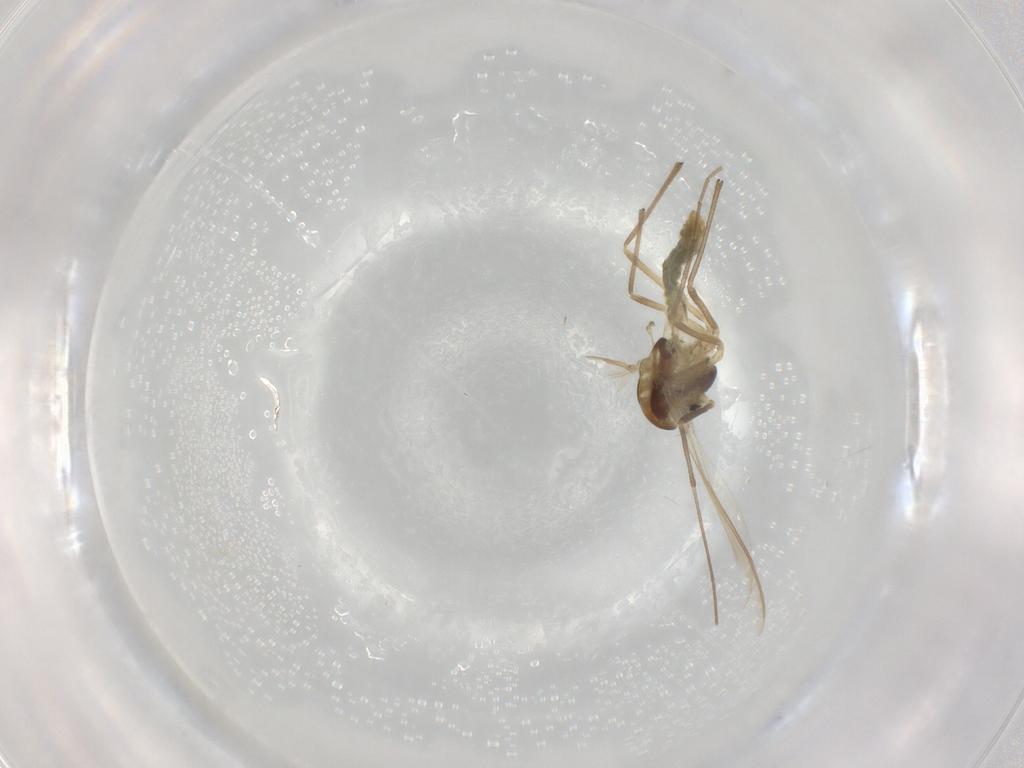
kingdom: Animalia
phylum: Arthropoda
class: Insecta
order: Diptera
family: Chironomidae
